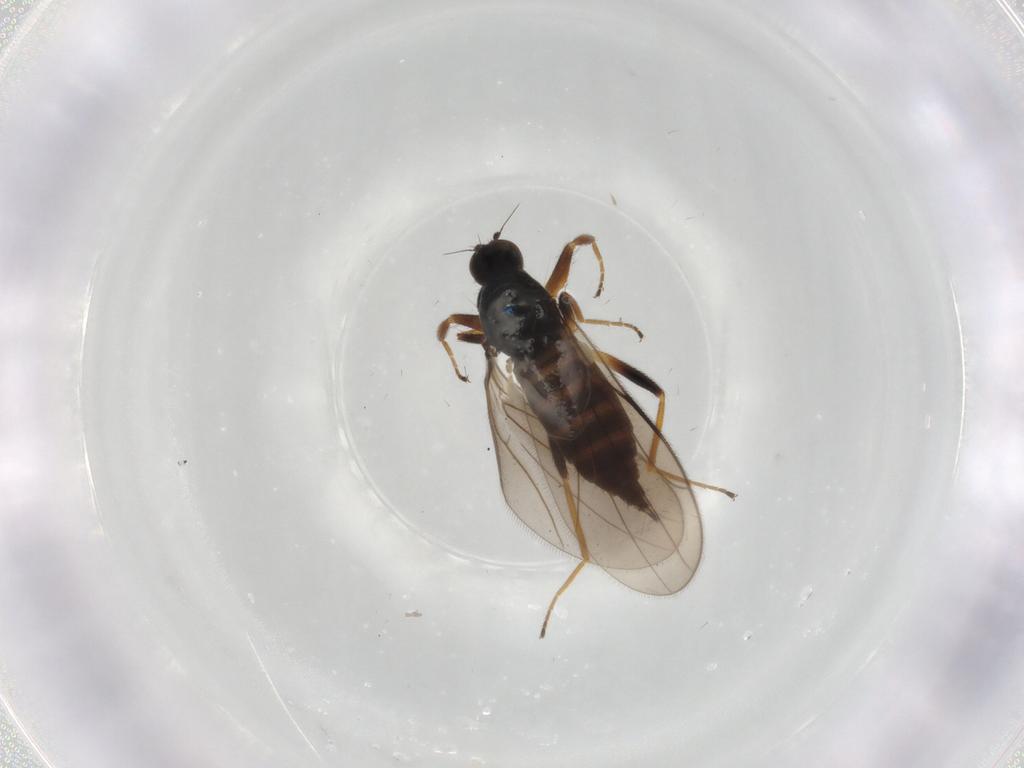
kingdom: Animalia
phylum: Arthropoda
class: Insecta
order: Diptera
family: Hybotidae
